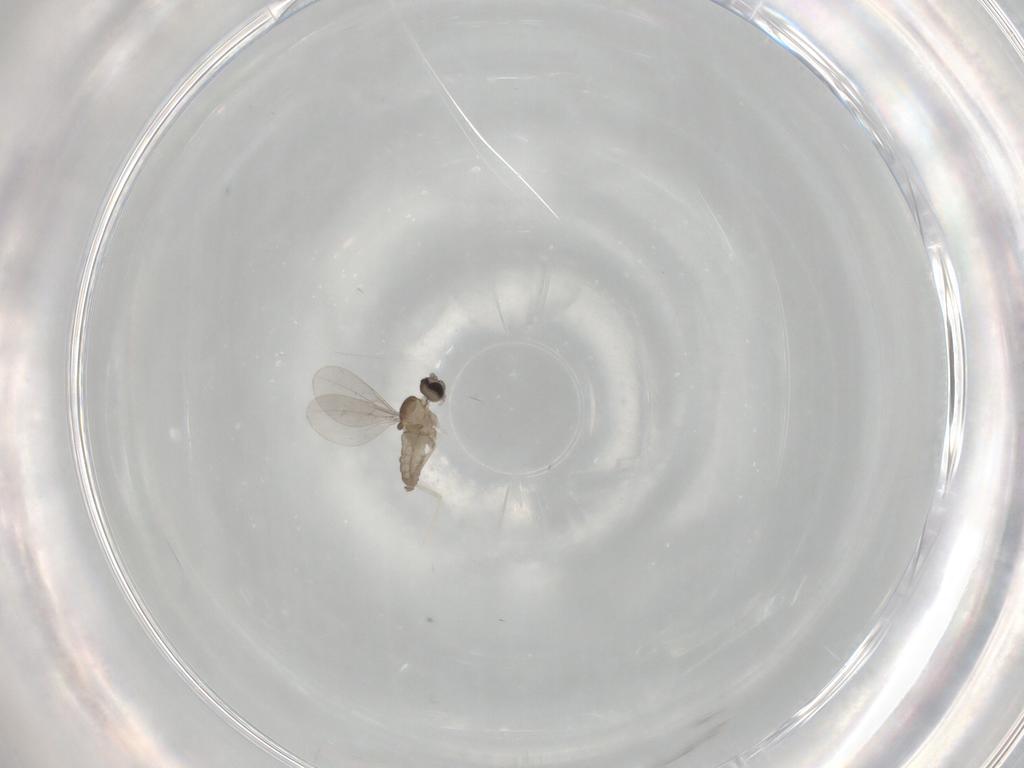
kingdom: Animalia
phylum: Arthropoda
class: Insecta
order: Diptera
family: Cecidomyiidae
